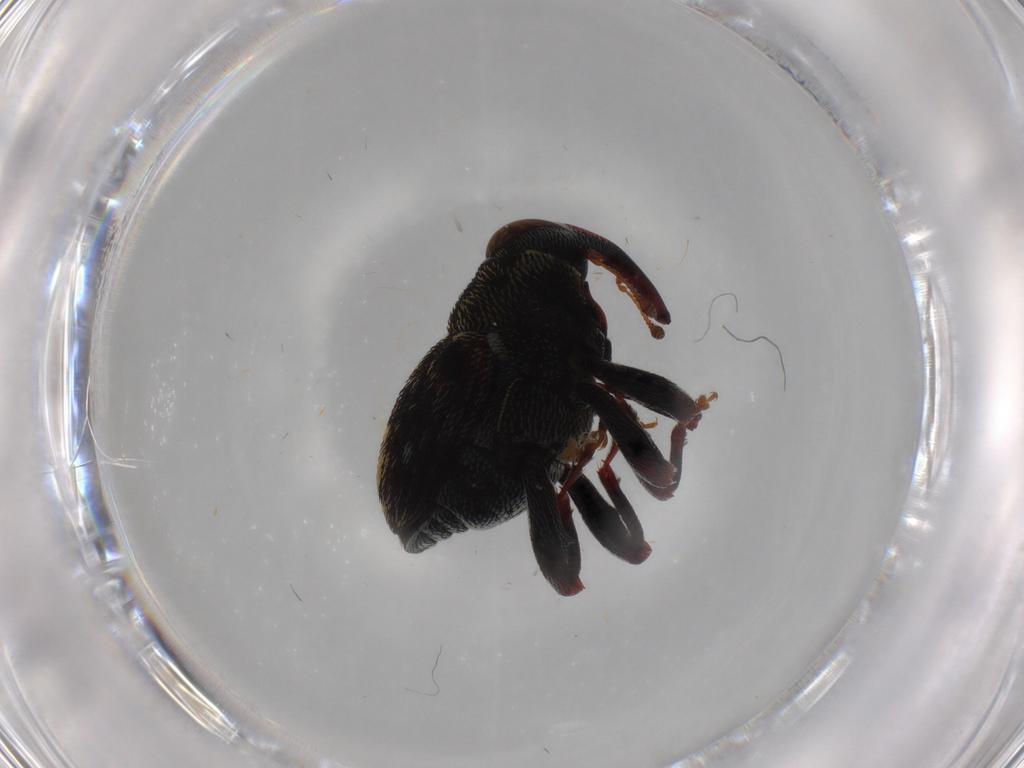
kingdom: Animalia
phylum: Arthropoda
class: Insecta
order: Coleoptera
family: Curculionidae
